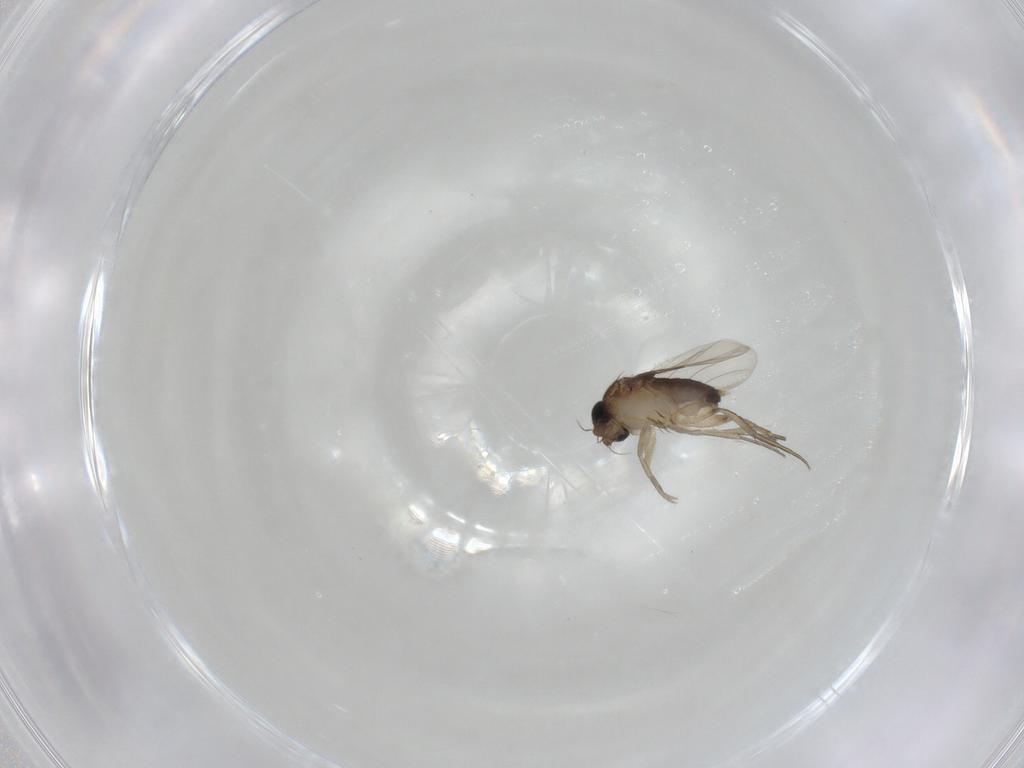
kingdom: Animalia
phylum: Arthropoda
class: Insecta
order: Diptera
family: Phoridae
